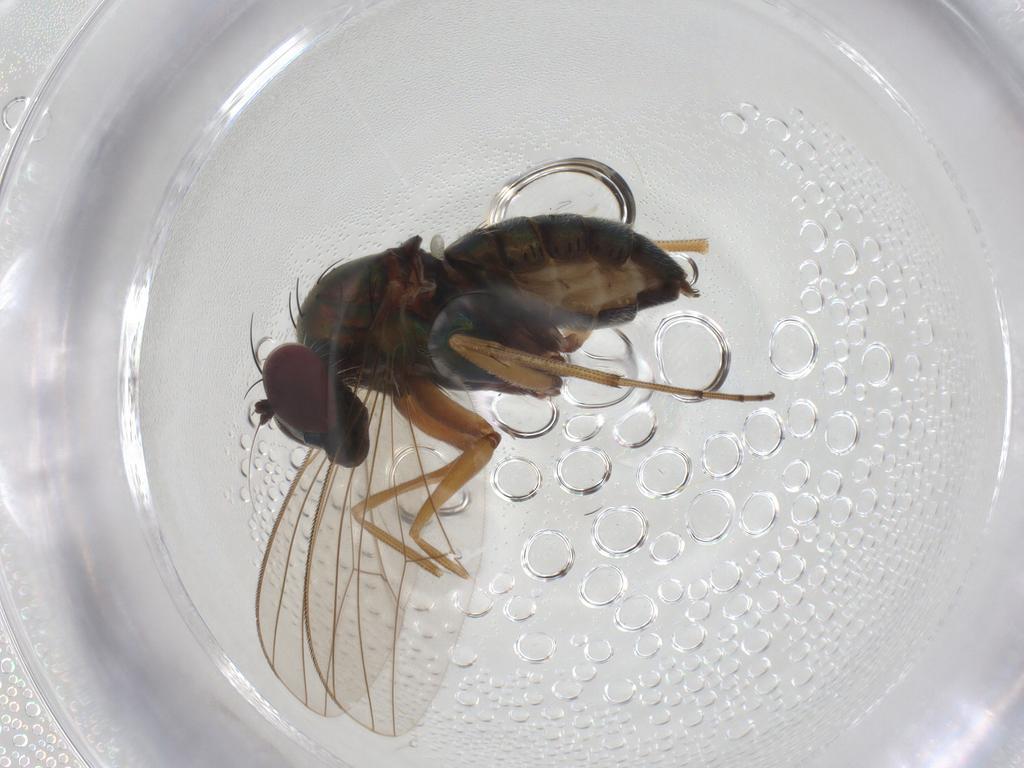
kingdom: Animalia
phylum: Arthropoda
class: Insecta
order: Diptera
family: Dolichopodidae
